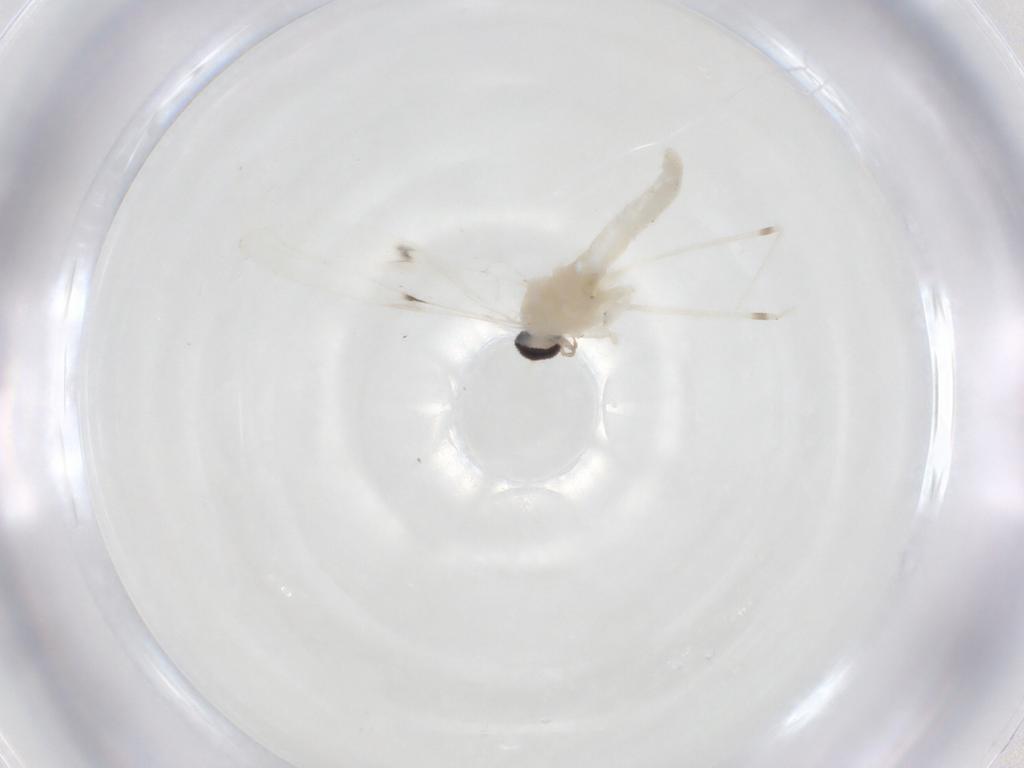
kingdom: Animalia
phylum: Arthropoda
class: Insecta
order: Diptera
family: Cecidomyiidae
